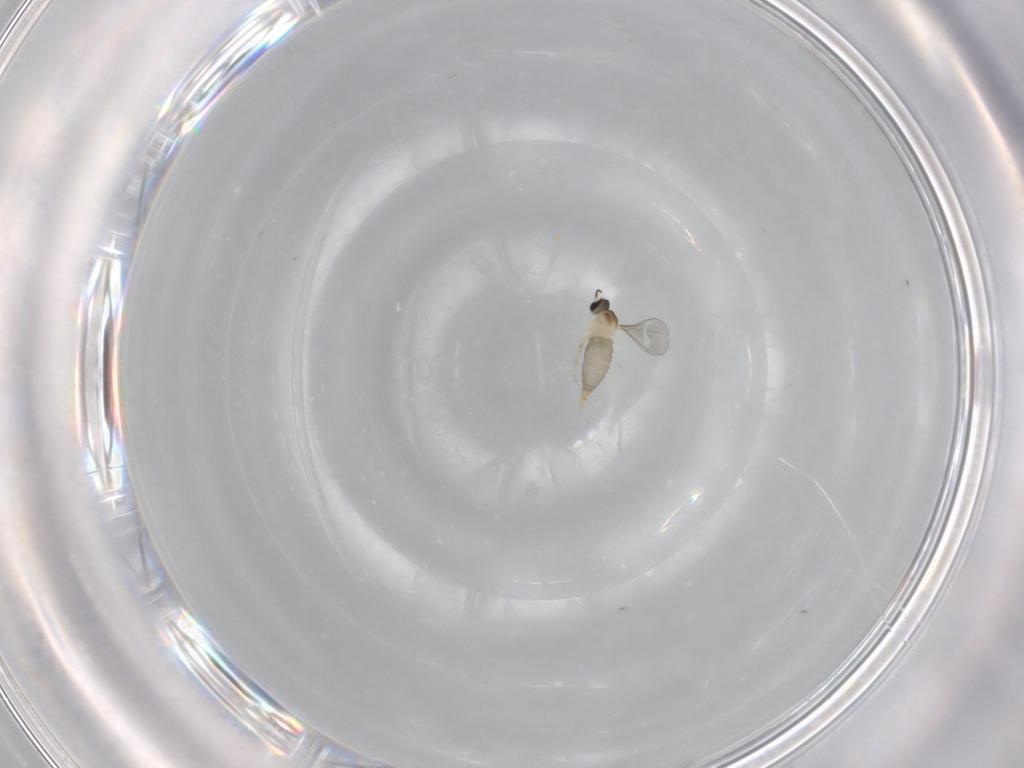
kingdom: Animalia
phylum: Arthropoda
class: Insecta
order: Diptera
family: Cecidomyiidae
